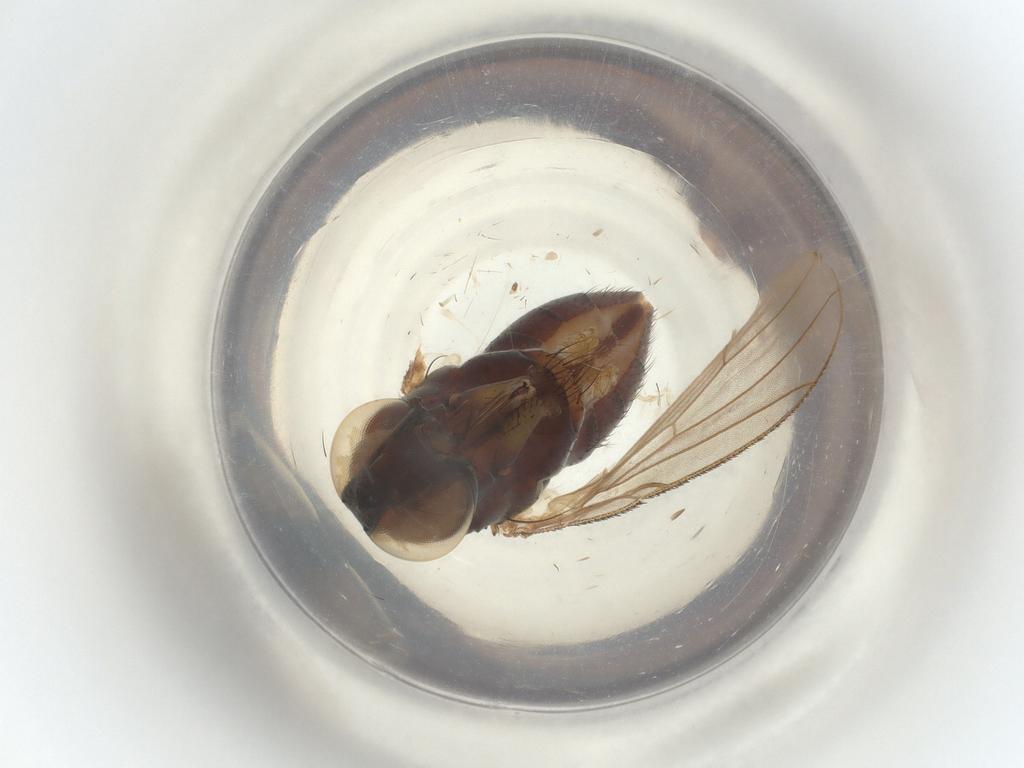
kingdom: Animalia
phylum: Arthropoda
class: Insecta
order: Diptera
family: Muscidae
